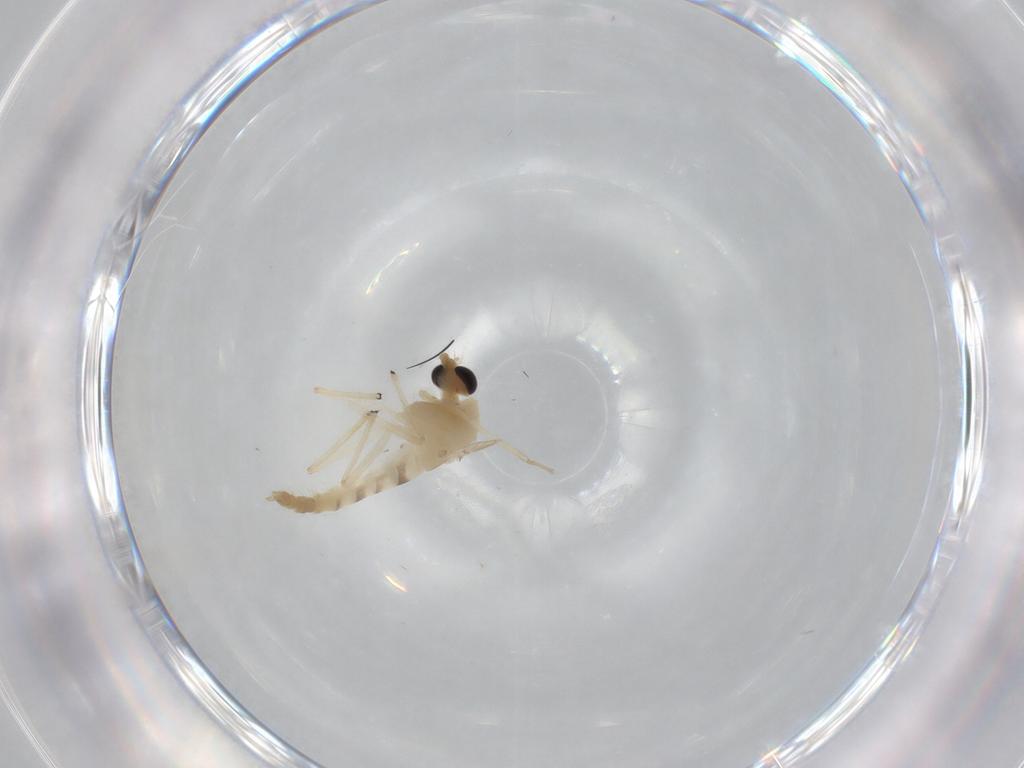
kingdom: Animalia
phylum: Arthropoda
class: Insecta
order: Diptera
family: Chironomidae
